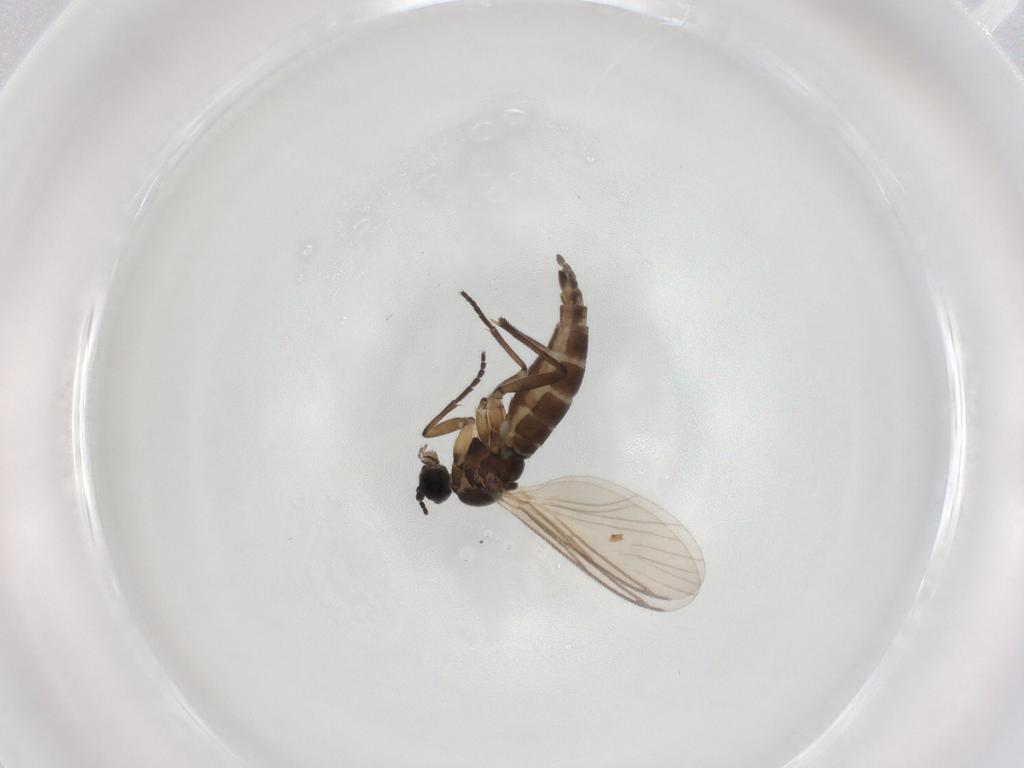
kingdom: Animalia
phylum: Arthropoda
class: Insecta
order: Diptera
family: Sciaridae
